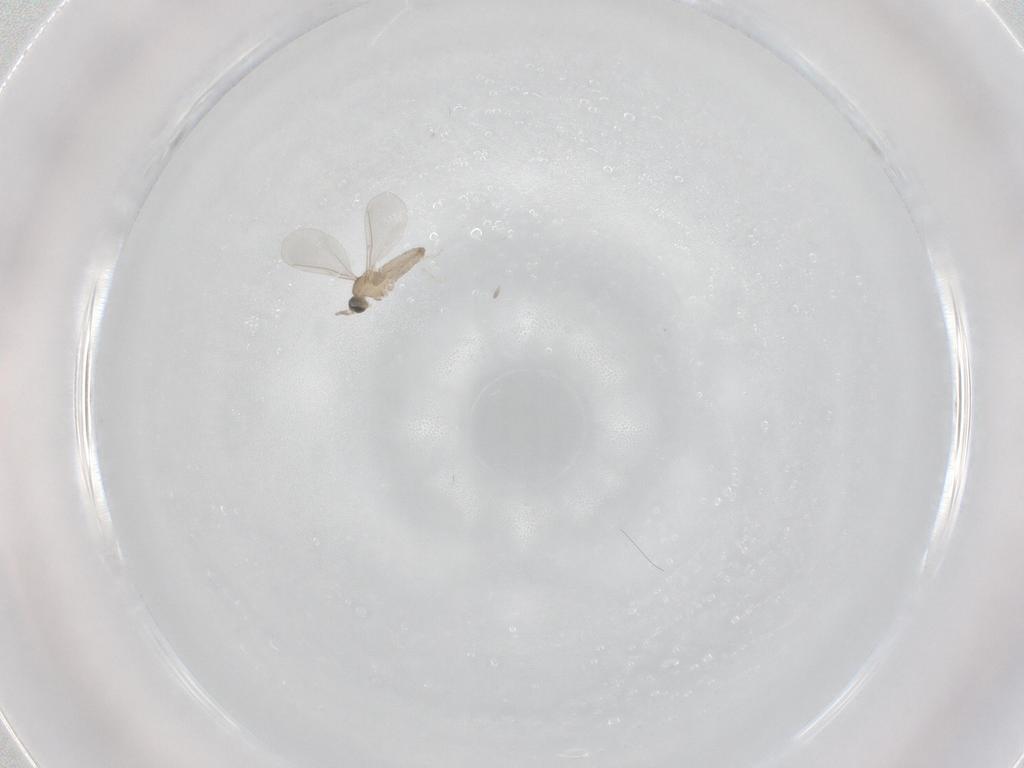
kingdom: Animalia
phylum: Arthropoda
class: Insecta
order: Diptera
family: Cecidomyiidae
